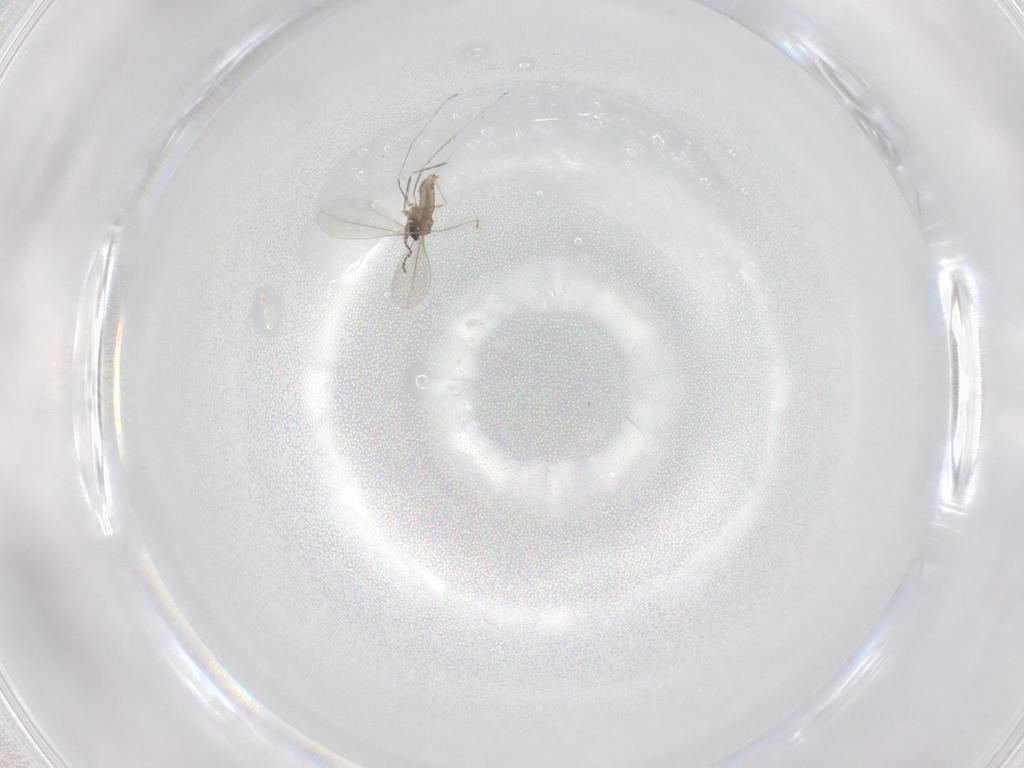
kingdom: Animalia
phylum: Arthropoda
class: Insecta
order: Diptera
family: Cecidomyiidae
